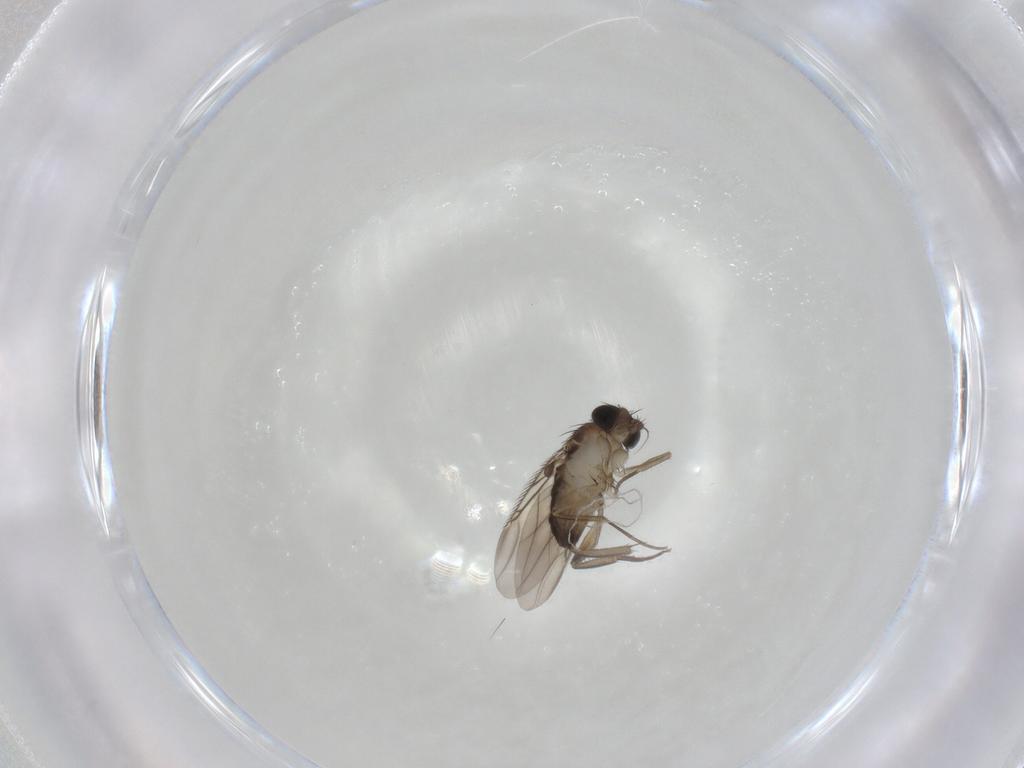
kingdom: Animalia
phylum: Arthropoda
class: Insecta
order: Diptera
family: Phoridae
